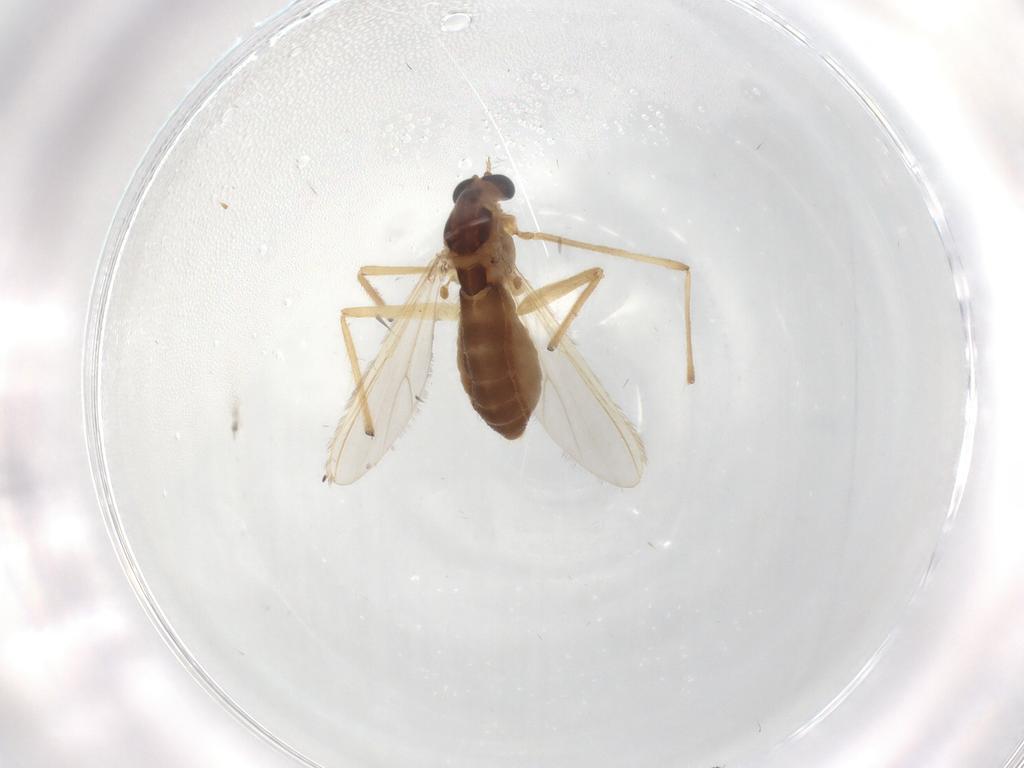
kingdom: Animalia
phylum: Arthropoda
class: Insecta
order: Diptera
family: Chironomidae
